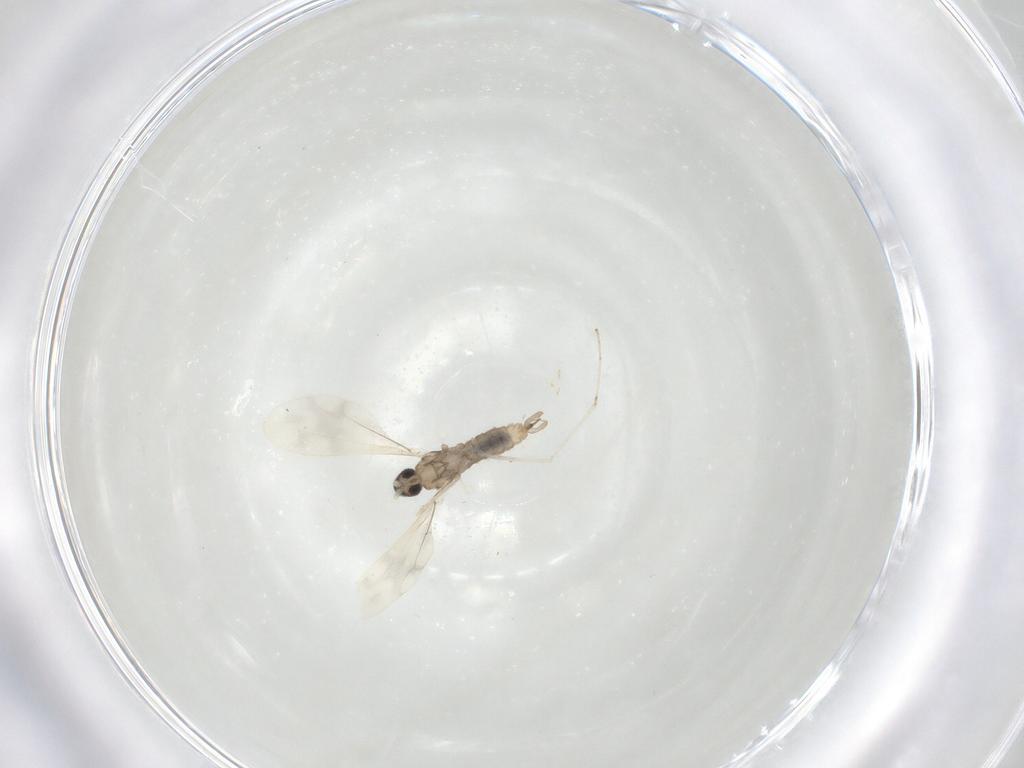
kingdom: Animalia
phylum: Arthropoda
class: Insecta
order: Diptera
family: Cecidomyiidae
